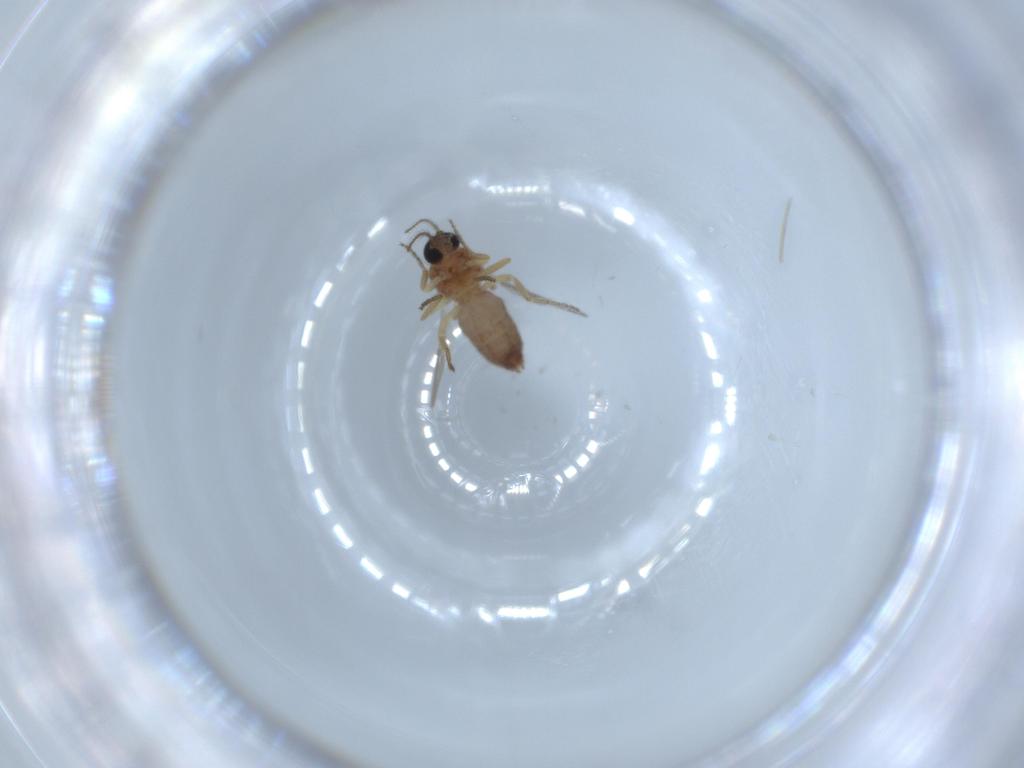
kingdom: Animalia
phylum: Arthropoda
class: Insecta
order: Diptera
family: Ceratopogonidae
